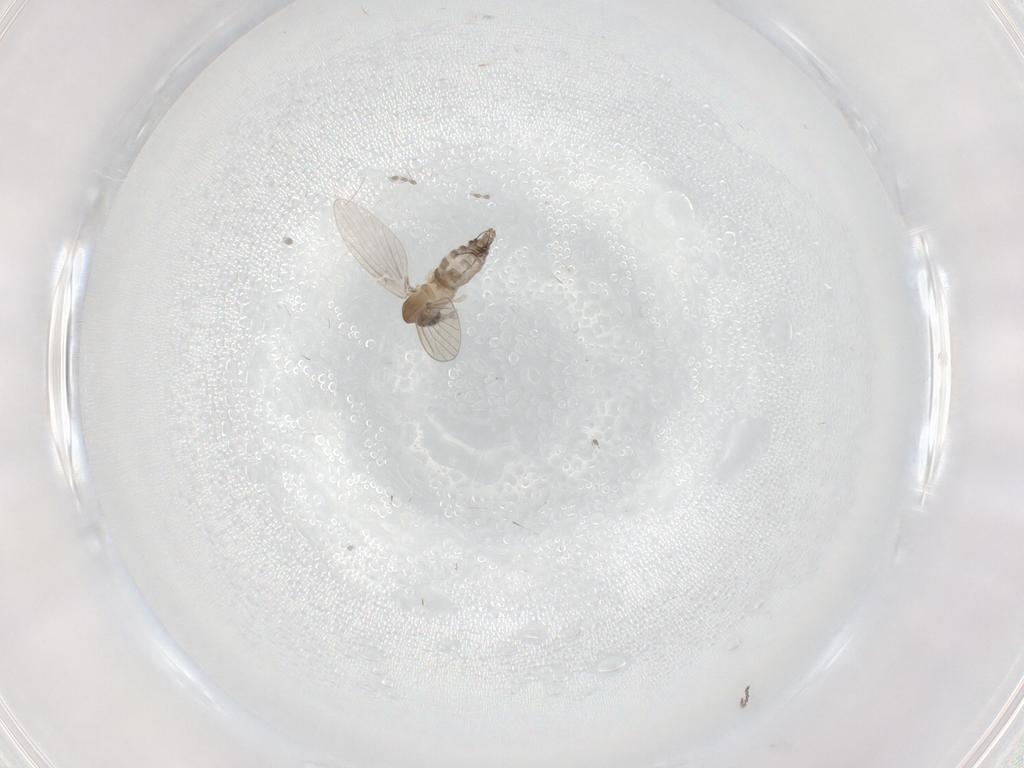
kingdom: Animalia
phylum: Arthropoda
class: Insecta
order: Diptera
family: Psychodidae
